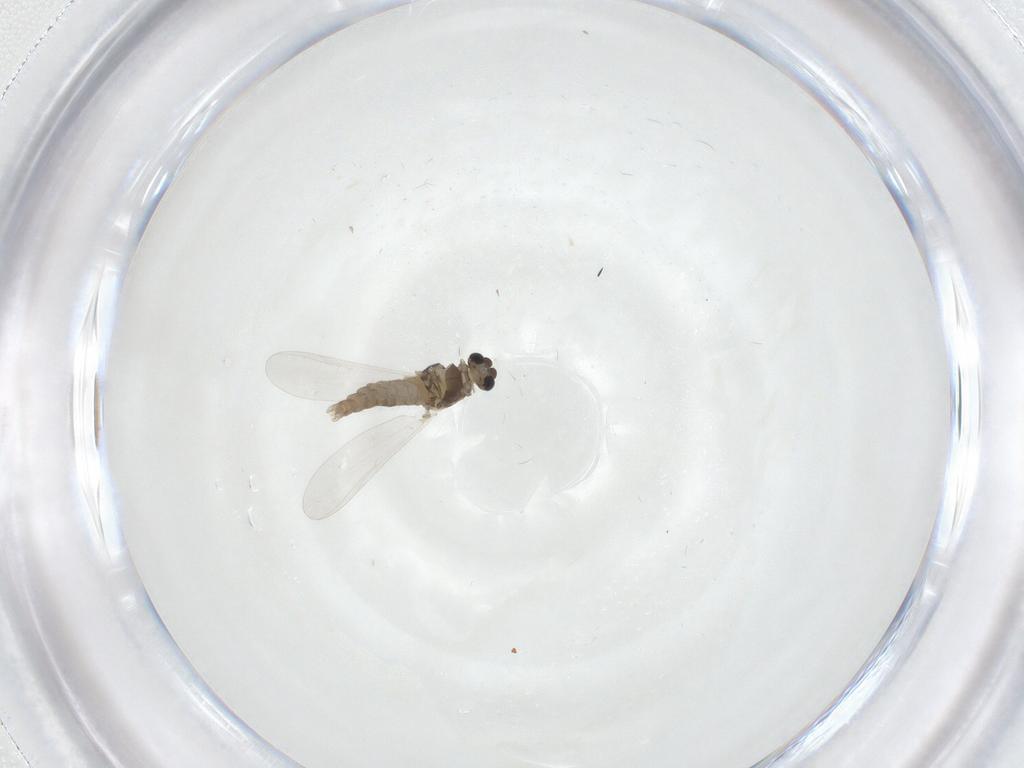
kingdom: Animalia
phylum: Arthropoda
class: Insecta
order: Diptera
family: Chironomidae
